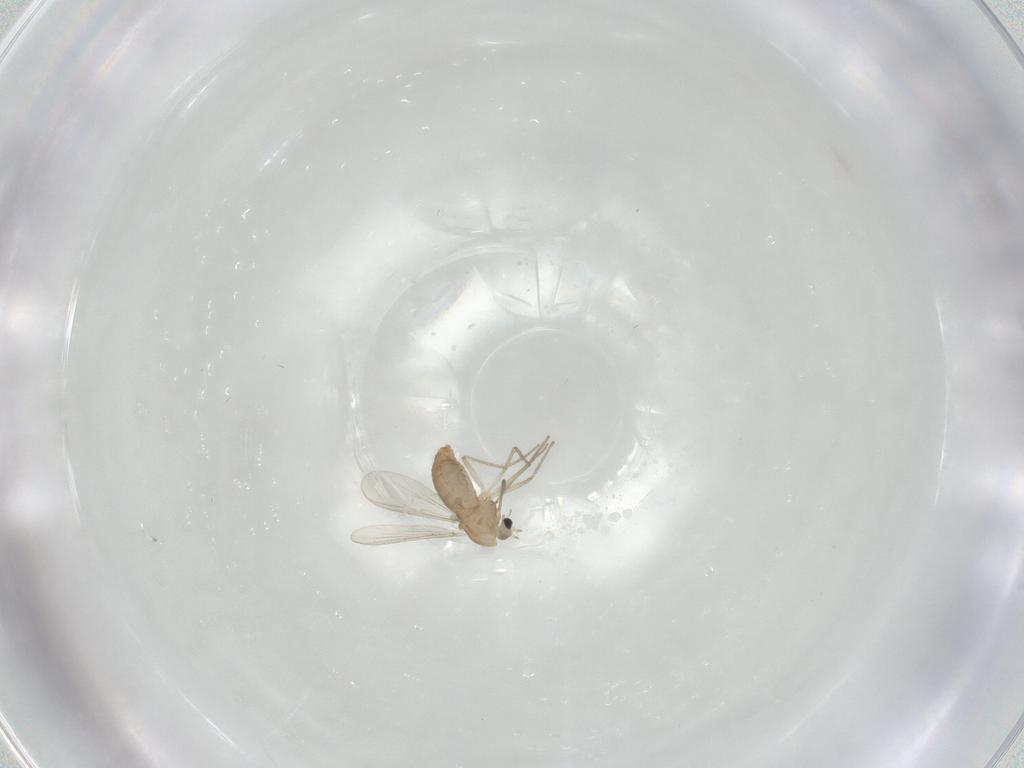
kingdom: Animalia
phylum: Arthropoda
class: Insecta
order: Diptera
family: Chironomidae
